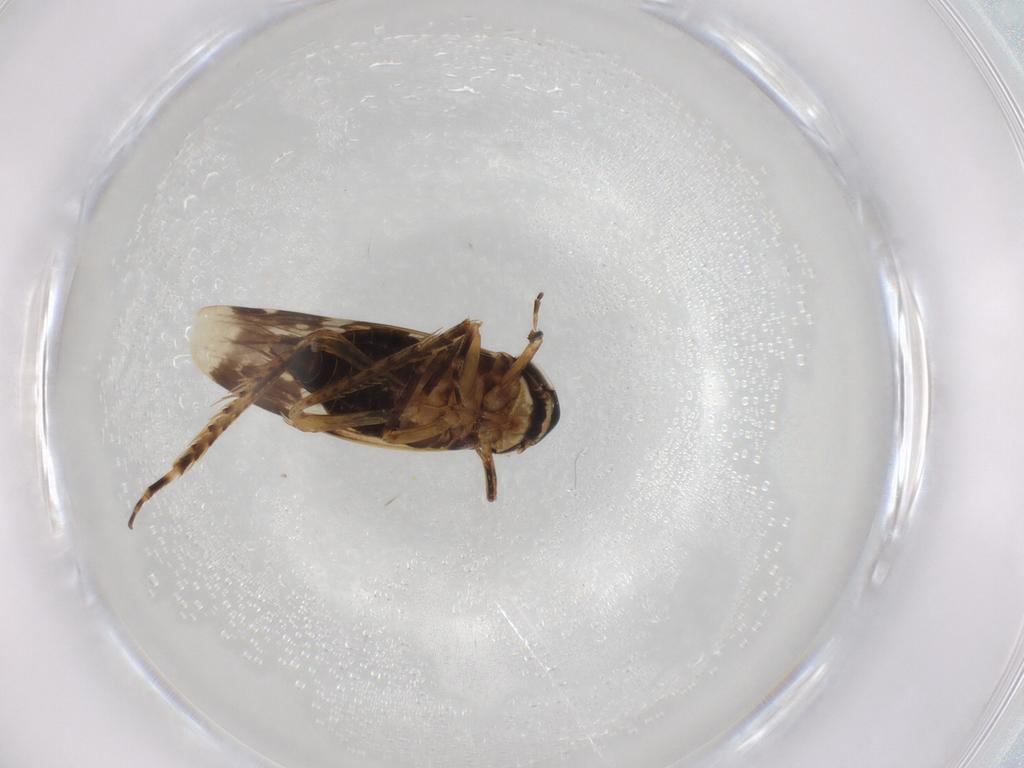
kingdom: Animalia
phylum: Arthropoda
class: Insecta
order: Hemiptera
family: Cicadellidae
